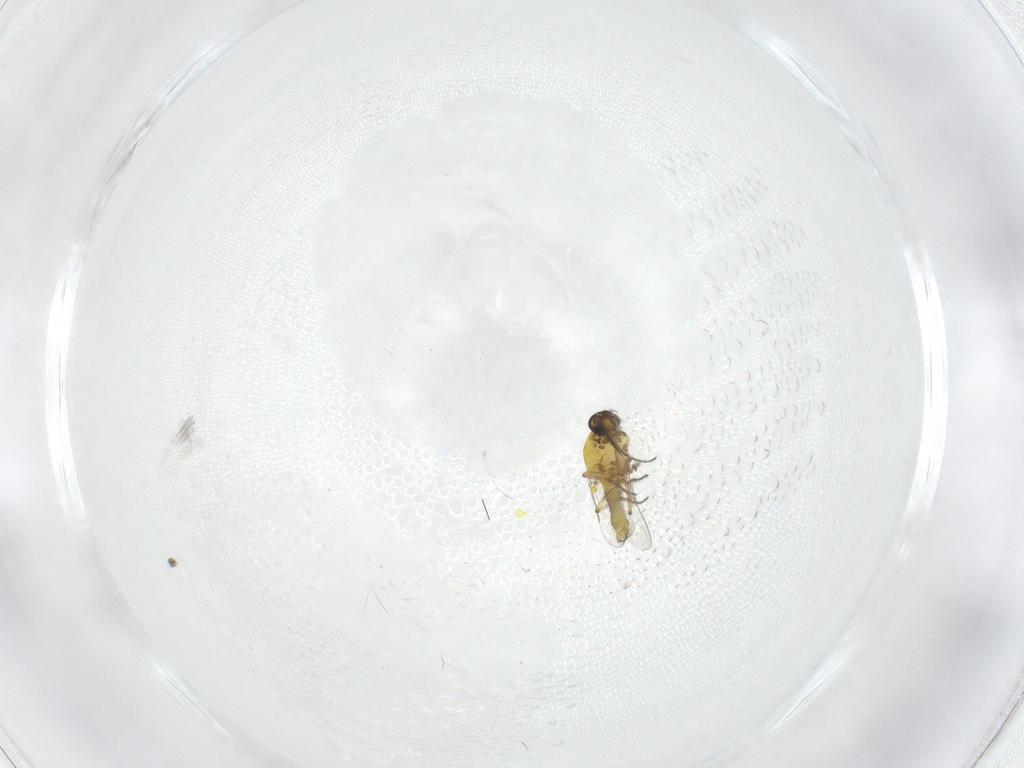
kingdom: Animalia
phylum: Arthropoda
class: Insecta
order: Diptera
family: Ceratopogonidae
